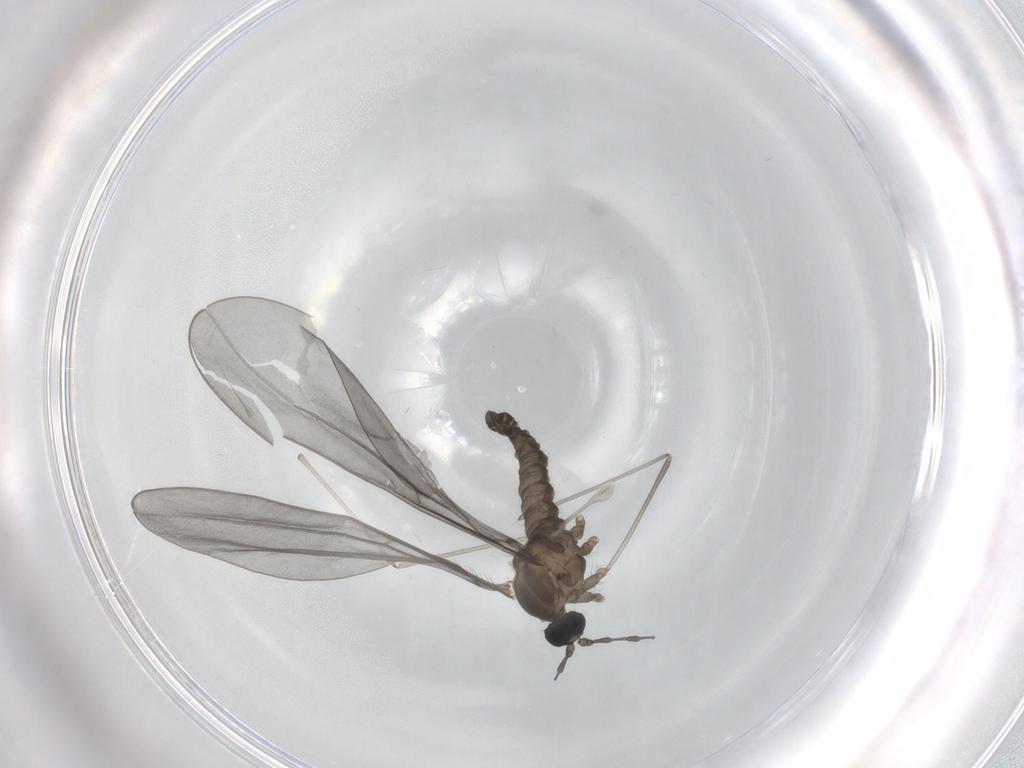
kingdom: Animalia
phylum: Arthropoda
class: Insecta
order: Diptera
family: Cecidomyiidae
